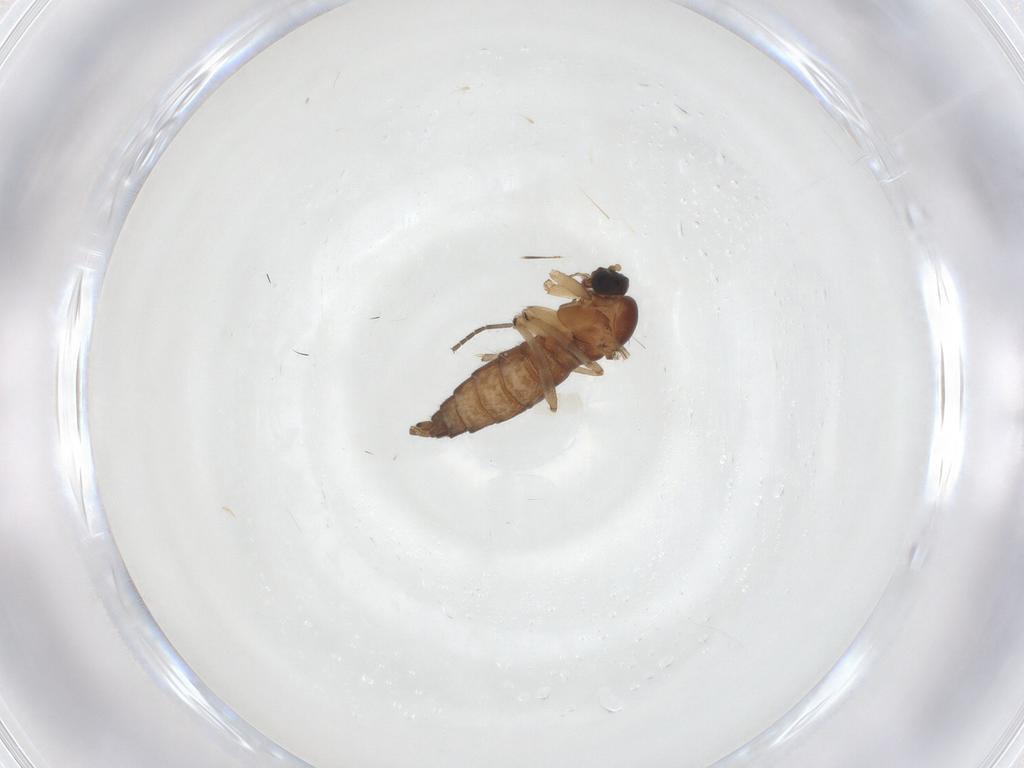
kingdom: Animalia
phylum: Arthropoda
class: Insecta
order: Diptera
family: Sciaridae
